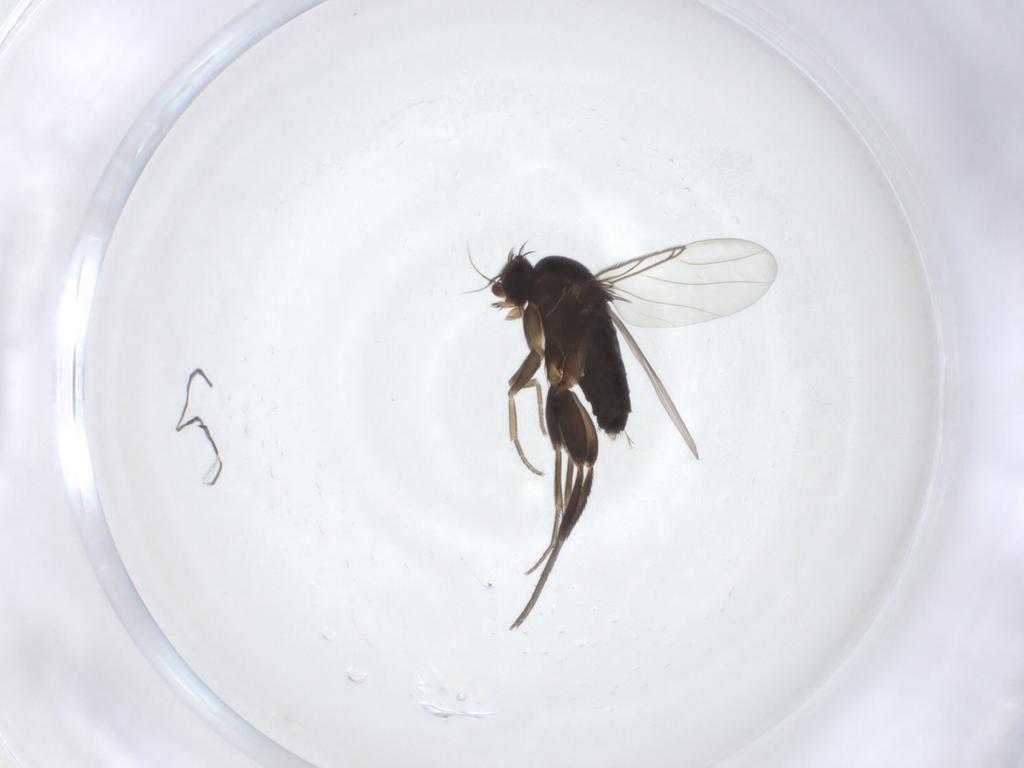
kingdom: Animalia
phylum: Arthropoda
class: Insecta
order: Diptera
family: Phoridae
